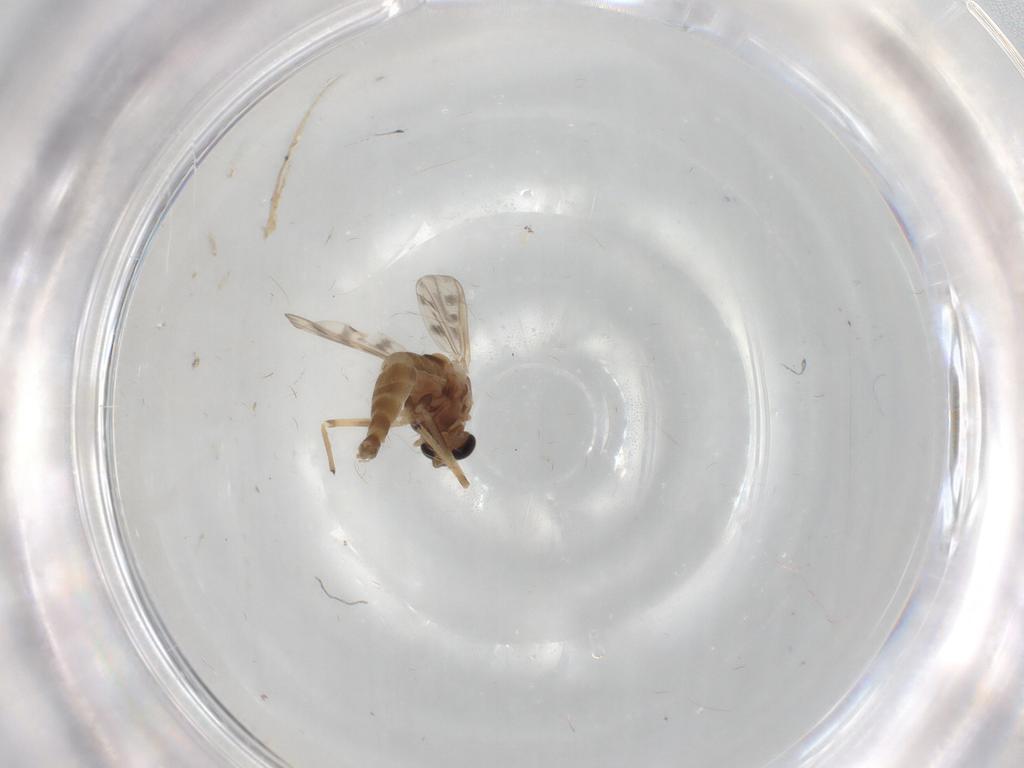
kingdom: Animalia
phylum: Arthropoda
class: Insecta
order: Diptera
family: Chironomidae
